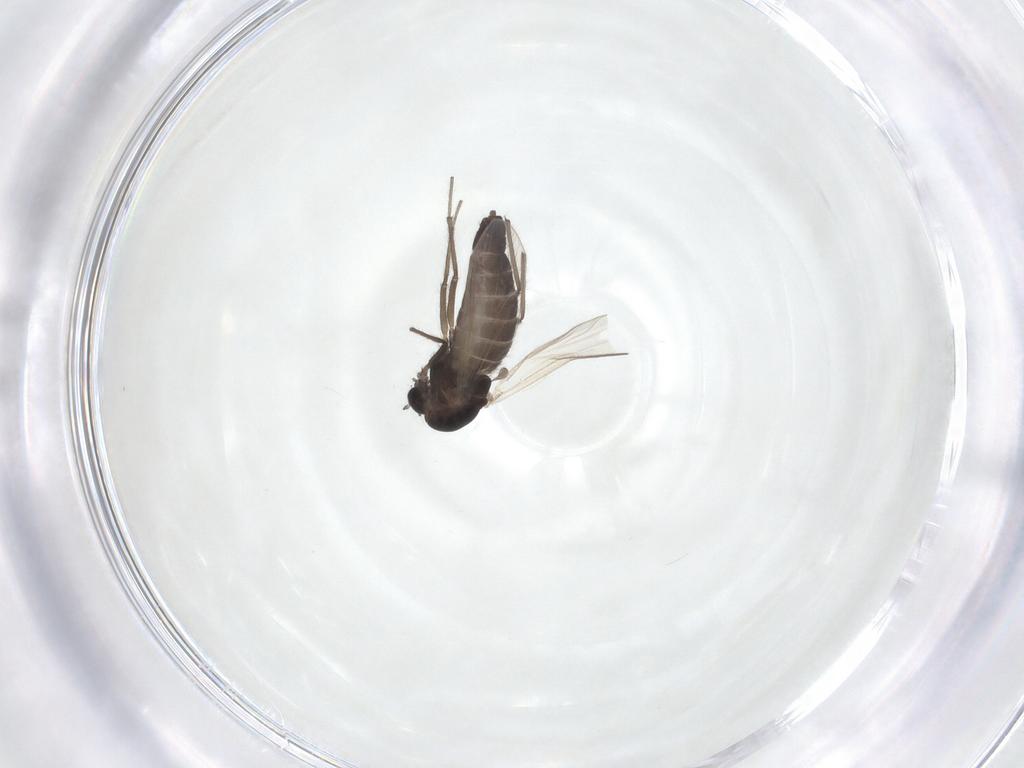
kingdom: Animalia
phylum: Arthropoda
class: Insecta
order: Diptera
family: Chironomidae
